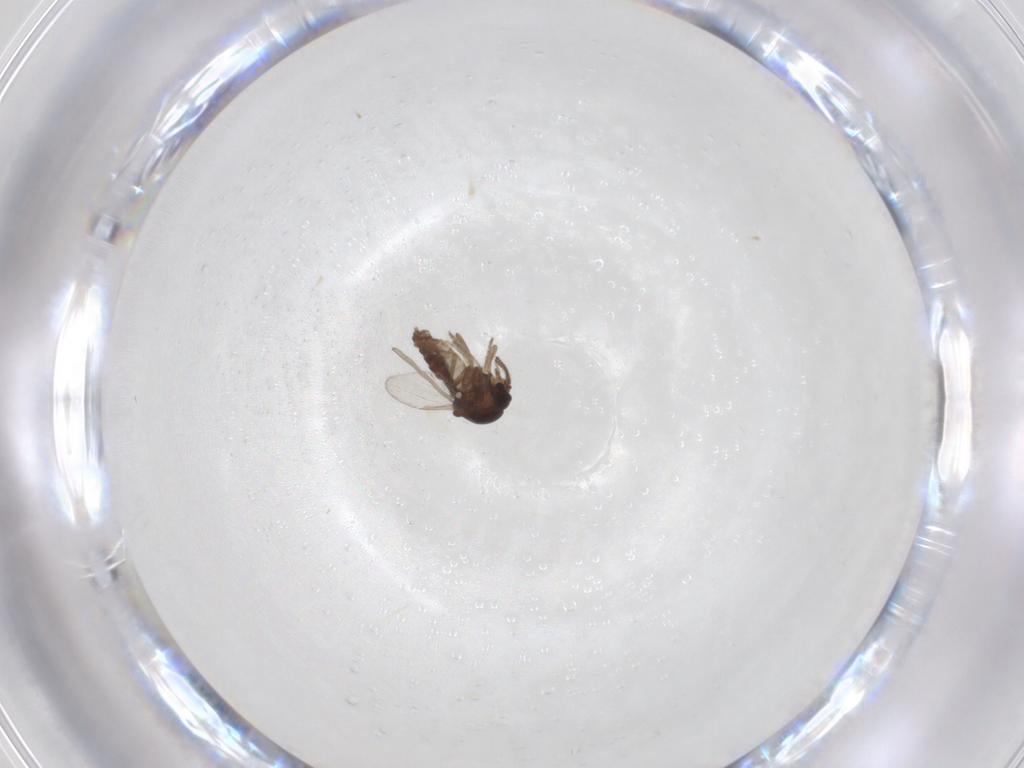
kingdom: Animalia
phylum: Arthropoda
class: Insecta
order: Diptera
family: Ceratopogonidae
